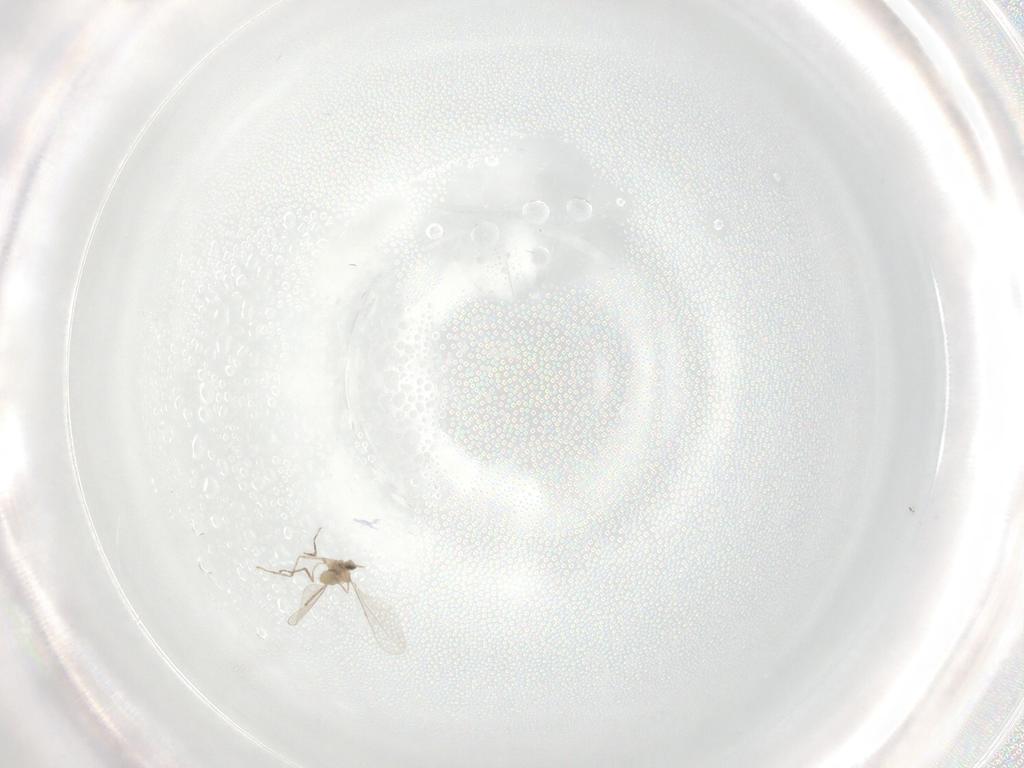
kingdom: Animalia
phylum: Arthropoda
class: Insecta
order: Diptera
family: Cecidomyiidae
